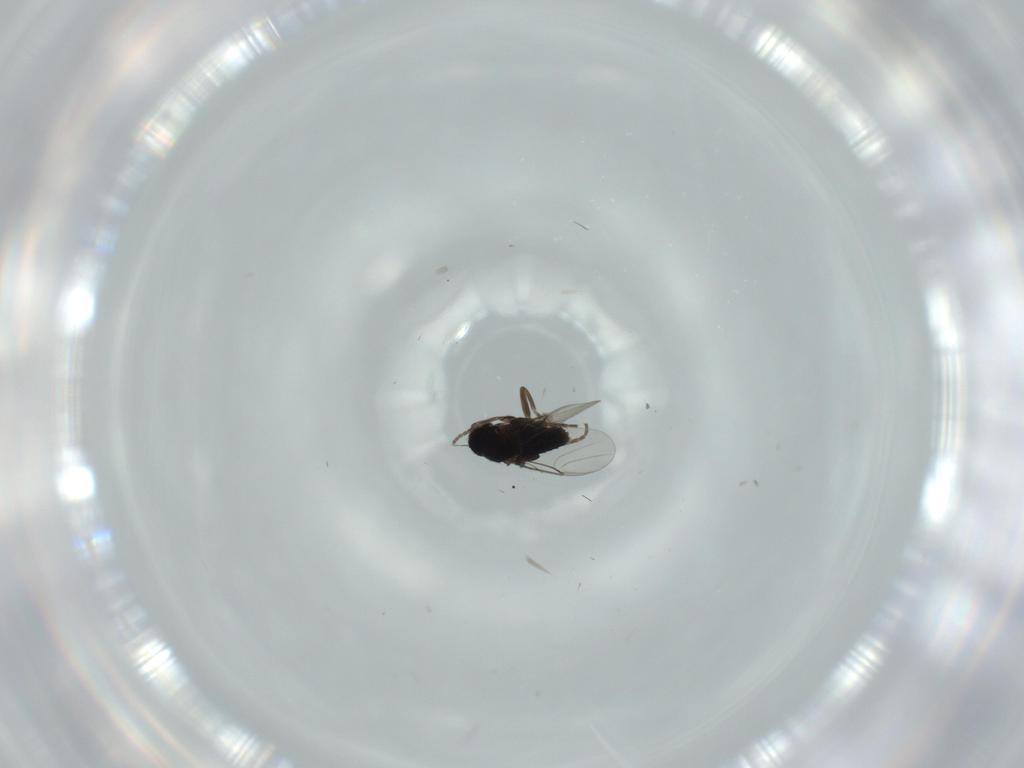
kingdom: Animalia
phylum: Arthropoda
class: Insecta
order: Diptera
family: Phoridae
